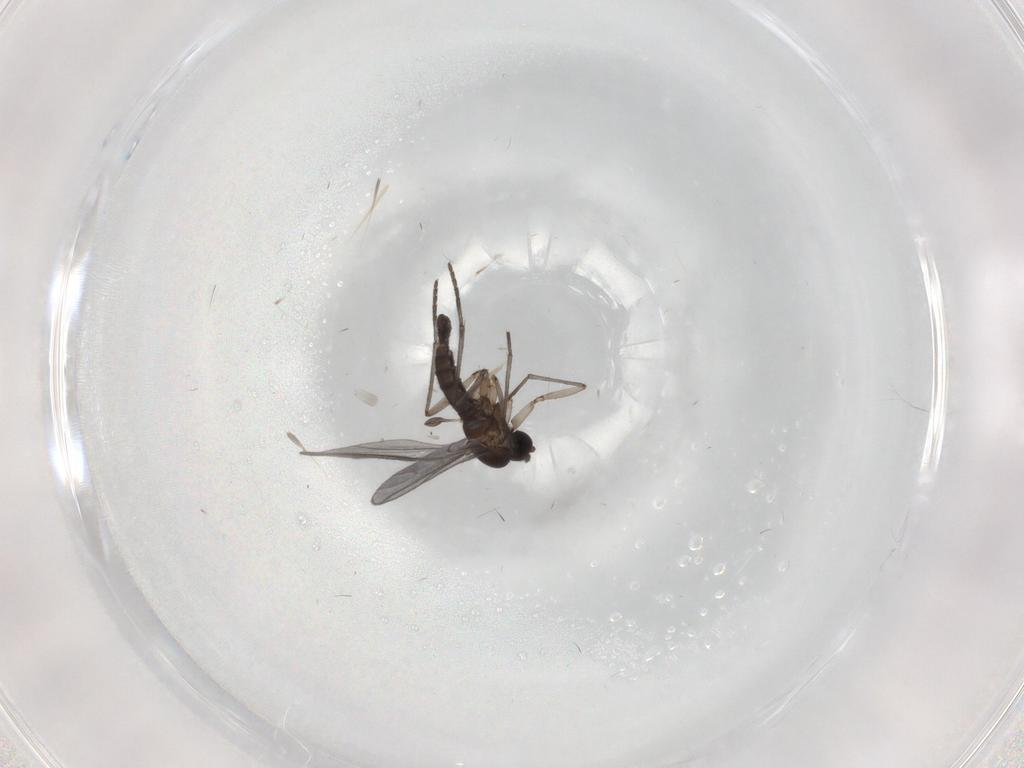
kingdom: Animalia
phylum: Arthropoda
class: Insecta
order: Diptera
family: Sciaridae
